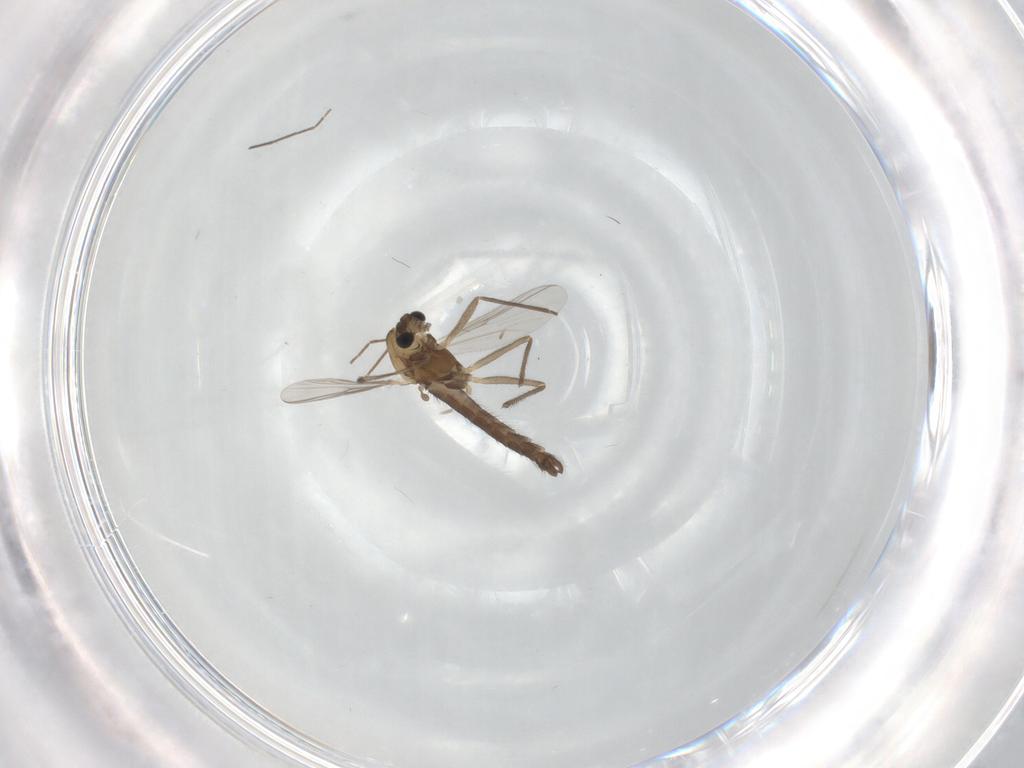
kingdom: Animalia
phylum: Arthropoda
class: Insecta
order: Diptera
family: Chironomidae
